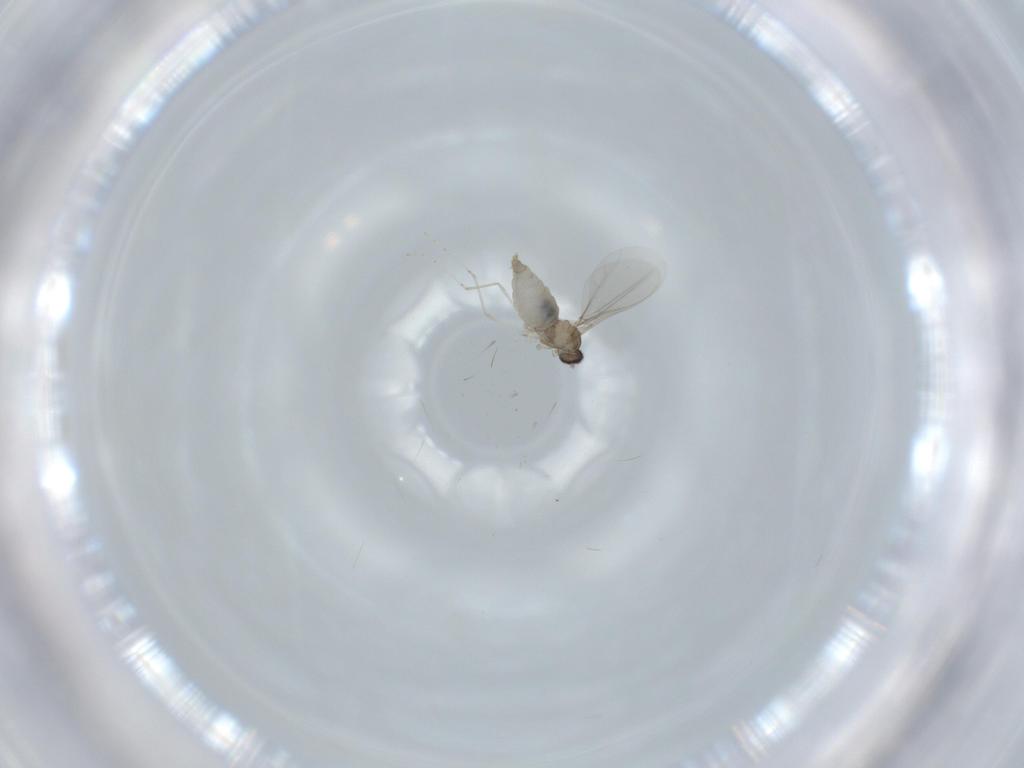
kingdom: Animalia
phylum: Arthropoda
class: Insecta
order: Diptera
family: Cecidomyiidae
